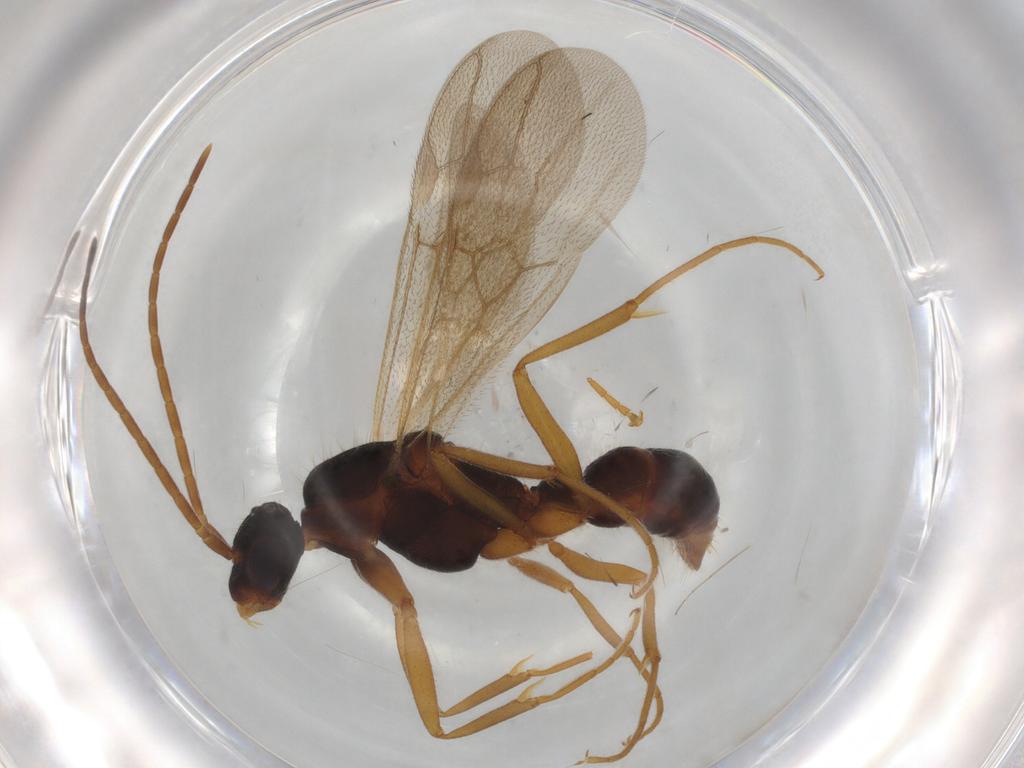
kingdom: Animalia
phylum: Arthropoda
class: Insecta
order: Hymenoptera
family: Formicidae
